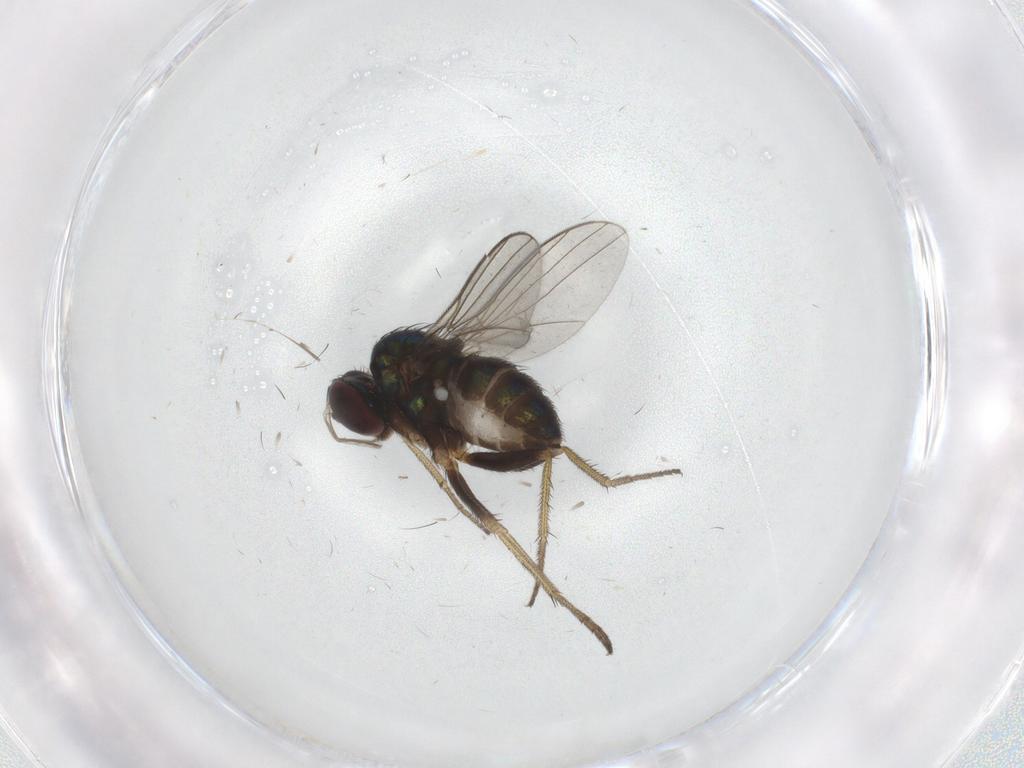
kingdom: Animalia
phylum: Arthropoda
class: Insecta
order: Diptera
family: Dolichopodidae
